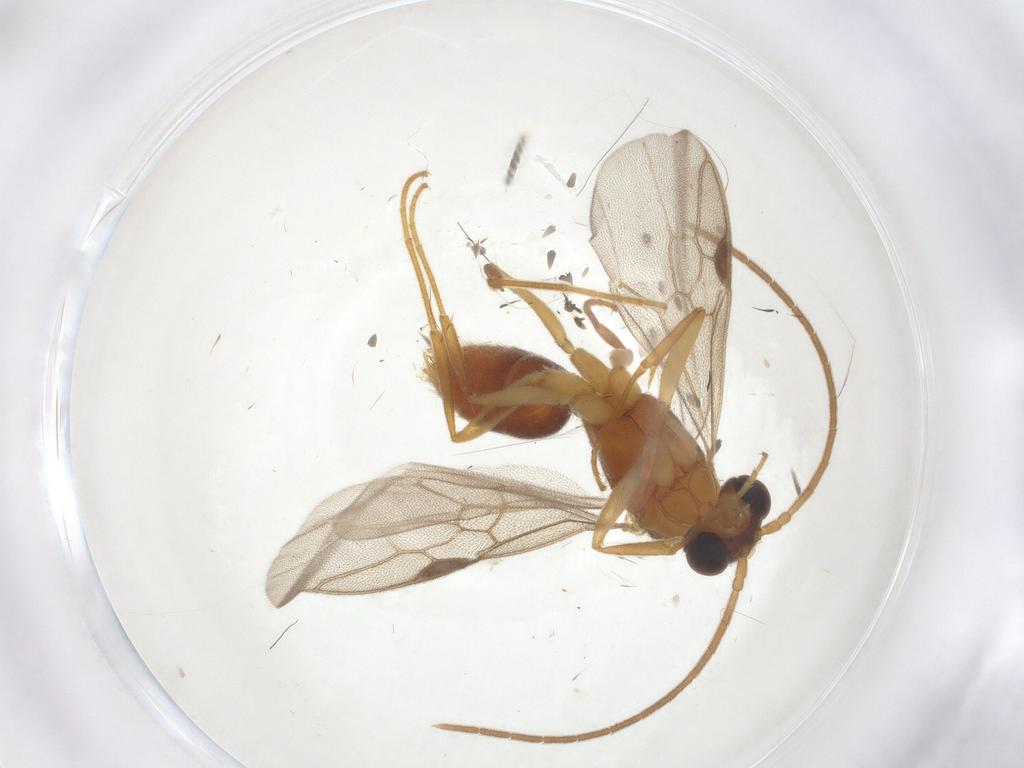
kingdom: Animalia
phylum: Arthropoda
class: Insecta
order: Hymenoptera
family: Formicidae
